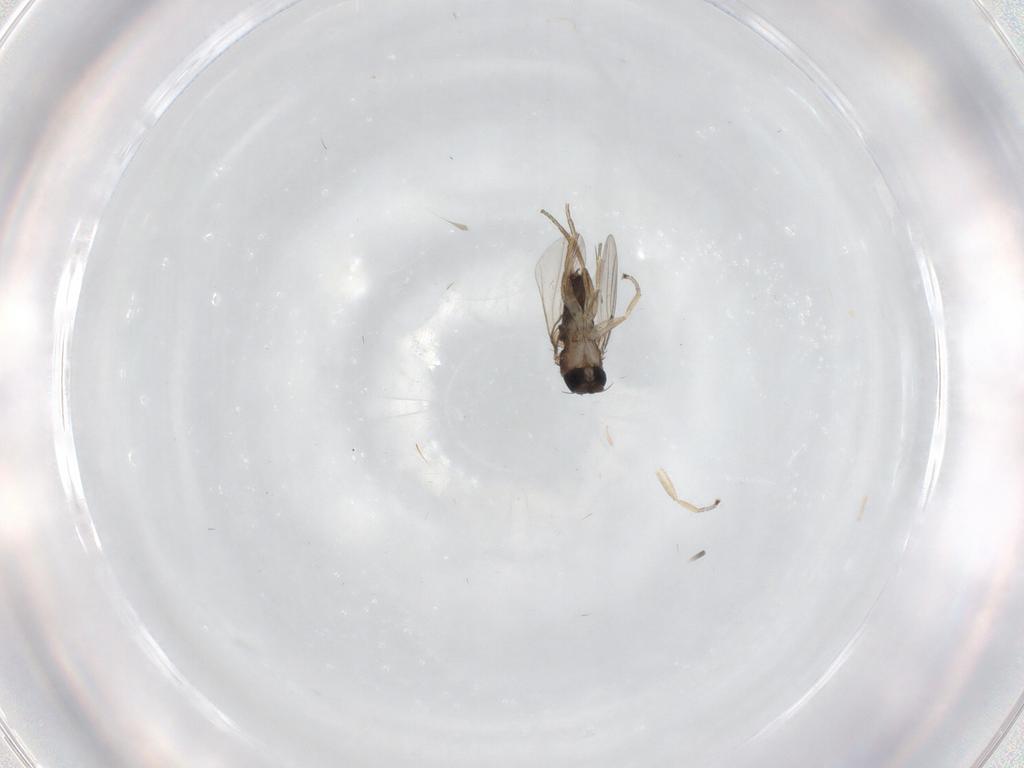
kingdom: Animalia
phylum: Arthropoda
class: Insecta
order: Diptera
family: Phoridae
